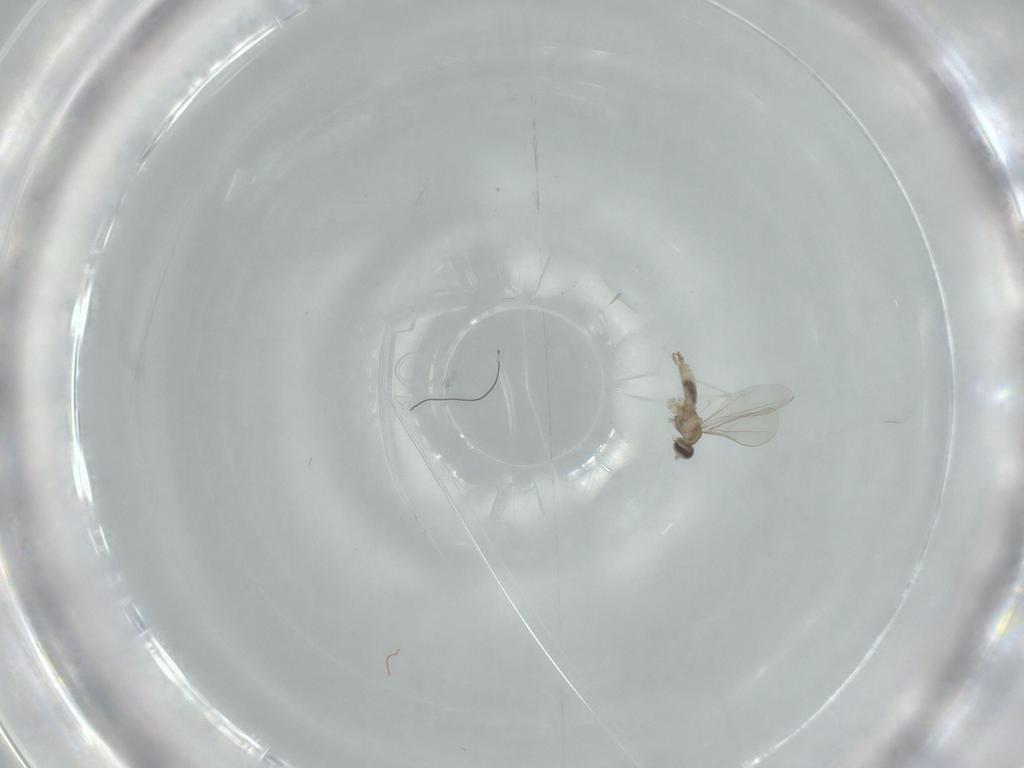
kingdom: Animalia
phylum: Arthropoda
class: Insecta
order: Diptera
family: Cecidomyiidae
